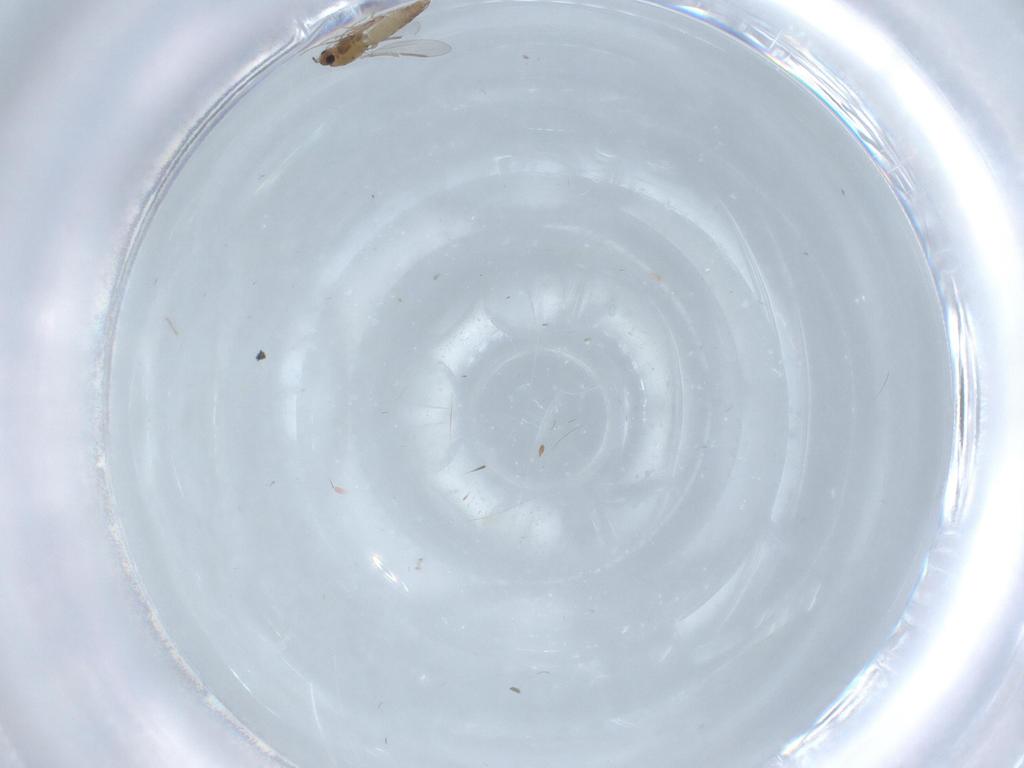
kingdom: Animalia
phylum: Arthropoda
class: Insecta
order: Diptera
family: Chironomidae
